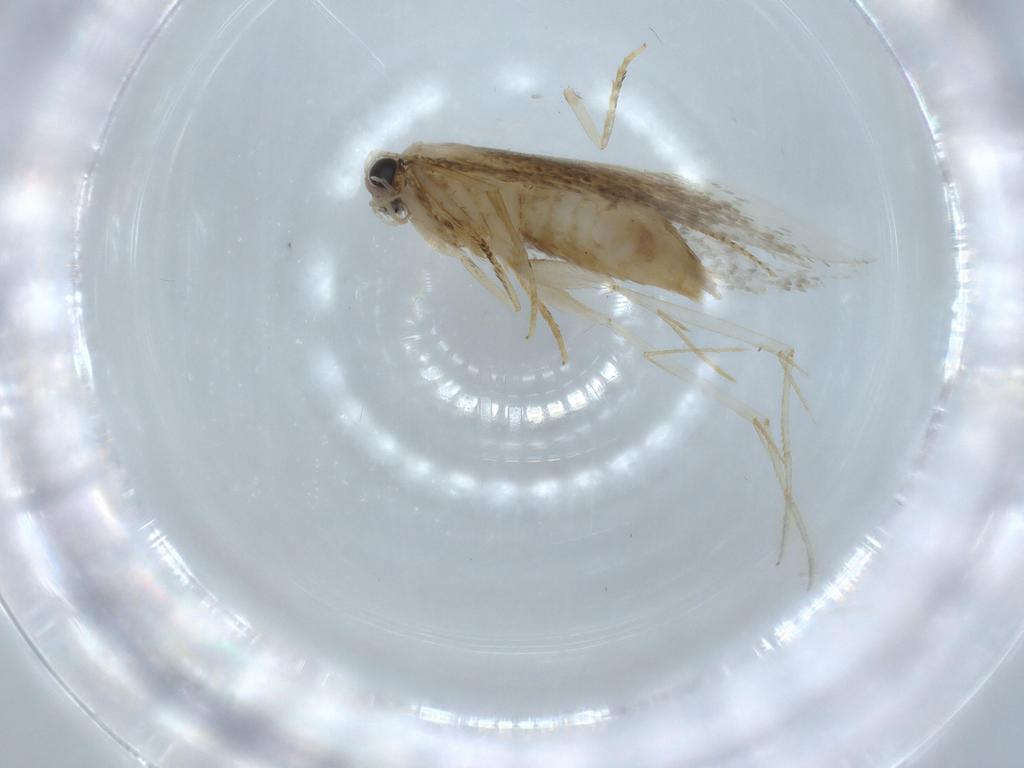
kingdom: Animalia
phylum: Arthropoda
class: Insecta
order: Lepidoptera
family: Tineidae
